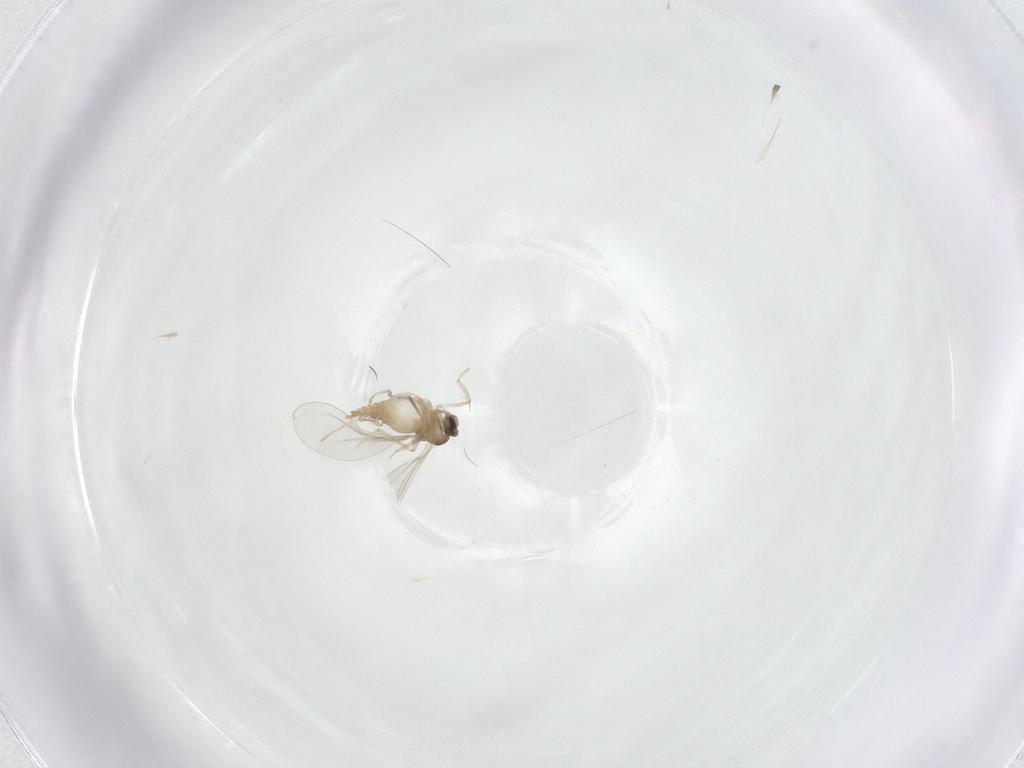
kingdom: Animalia
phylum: Arthropoda
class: Insecta
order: Diptera
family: Cecidomyiidae
